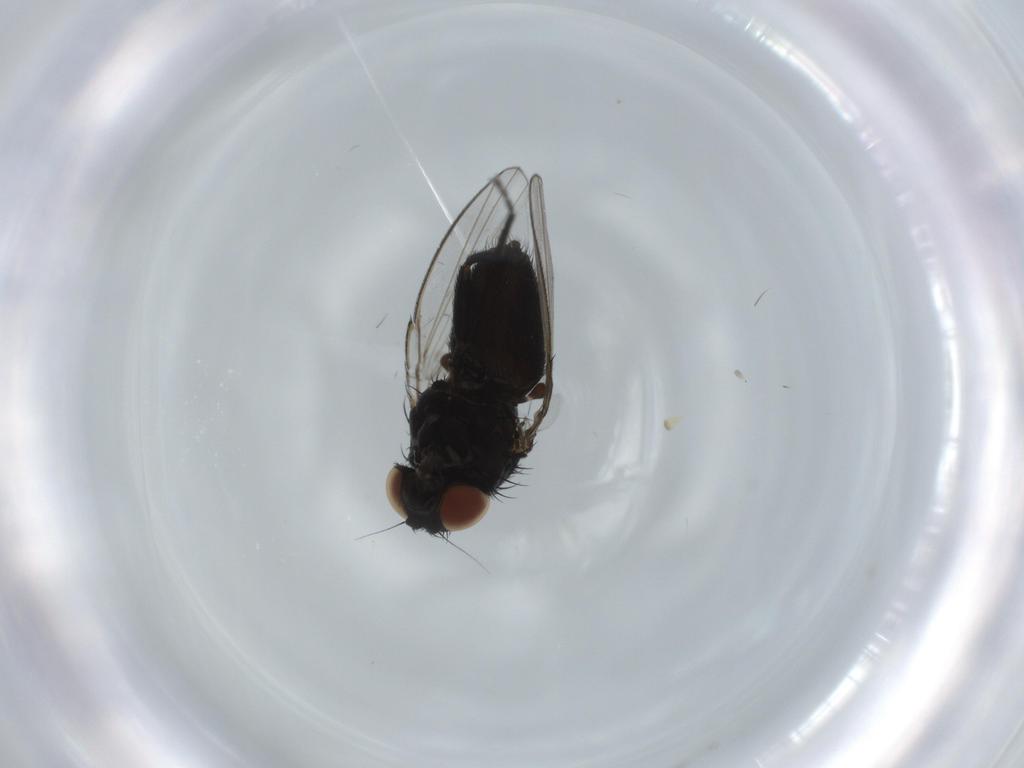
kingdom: Animalia
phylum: Arthropoda
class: Insecta
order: Diptera
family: Milichiidae
